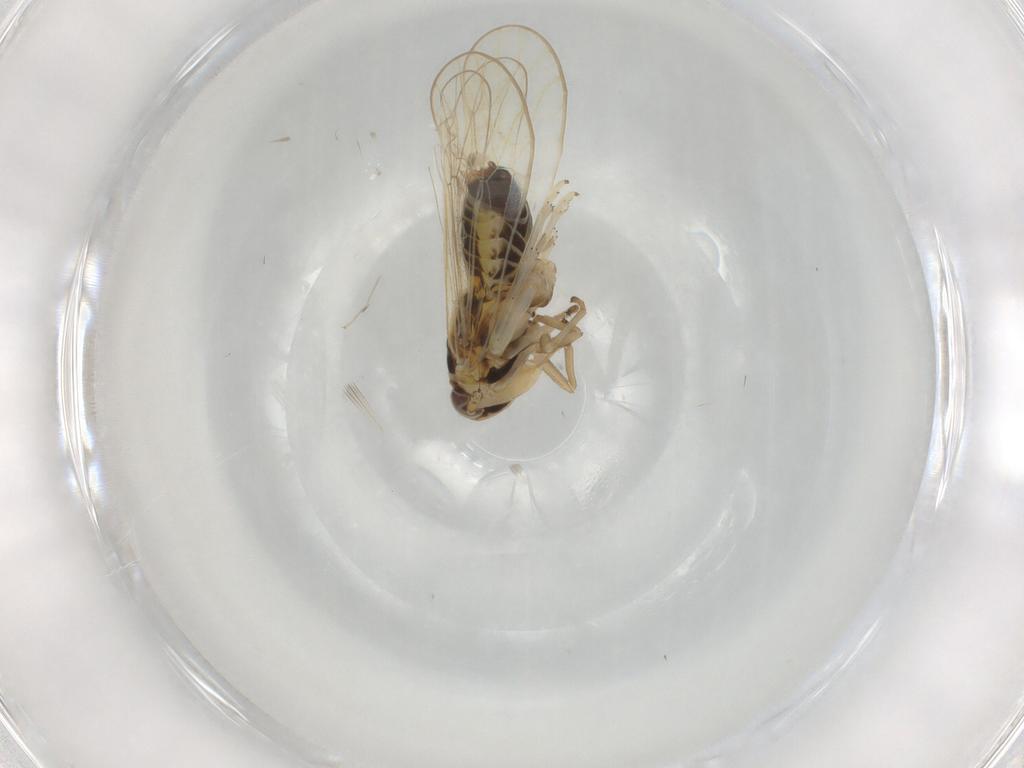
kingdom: Animalia
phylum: Arthropoda
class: Insecta
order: Hemiptera
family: Delphacidae
